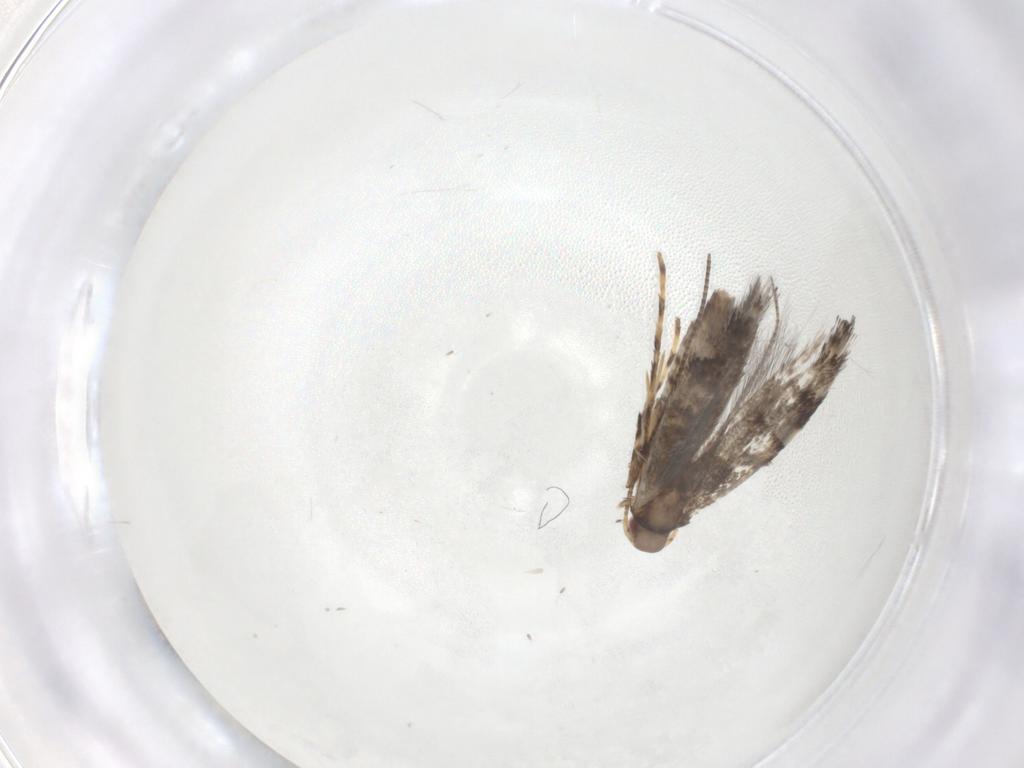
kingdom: Animalia
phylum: Arthropoda
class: Insecta
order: Lepidoptera
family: Gracillariidae
